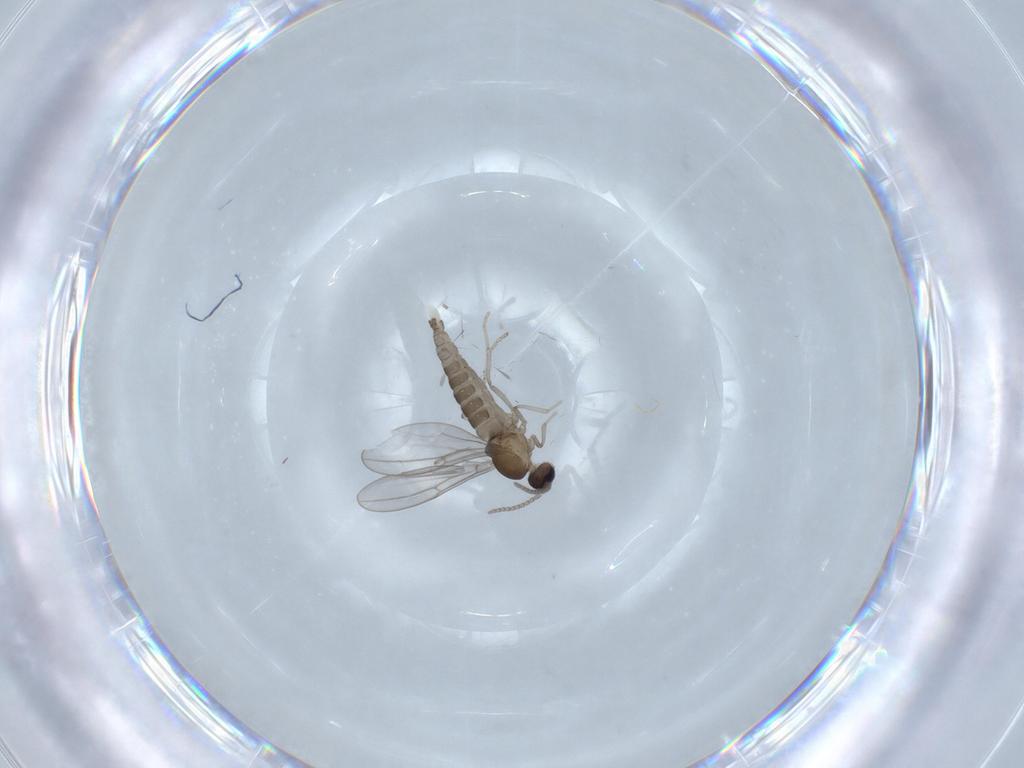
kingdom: Animalia
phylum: Arthropoda
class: Insecta
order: Diptera
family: Cecidomyiidae
